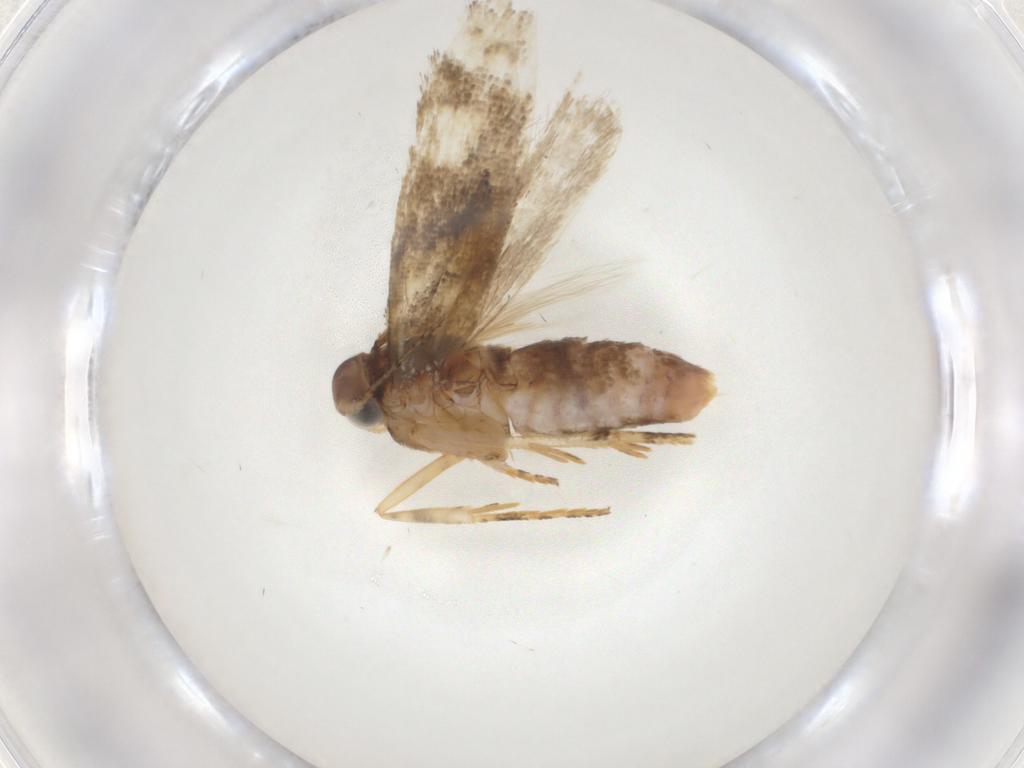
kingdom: Animalia
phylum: Arthropoda
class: Insecta
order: Lepidoptera
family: Gelechiidae
